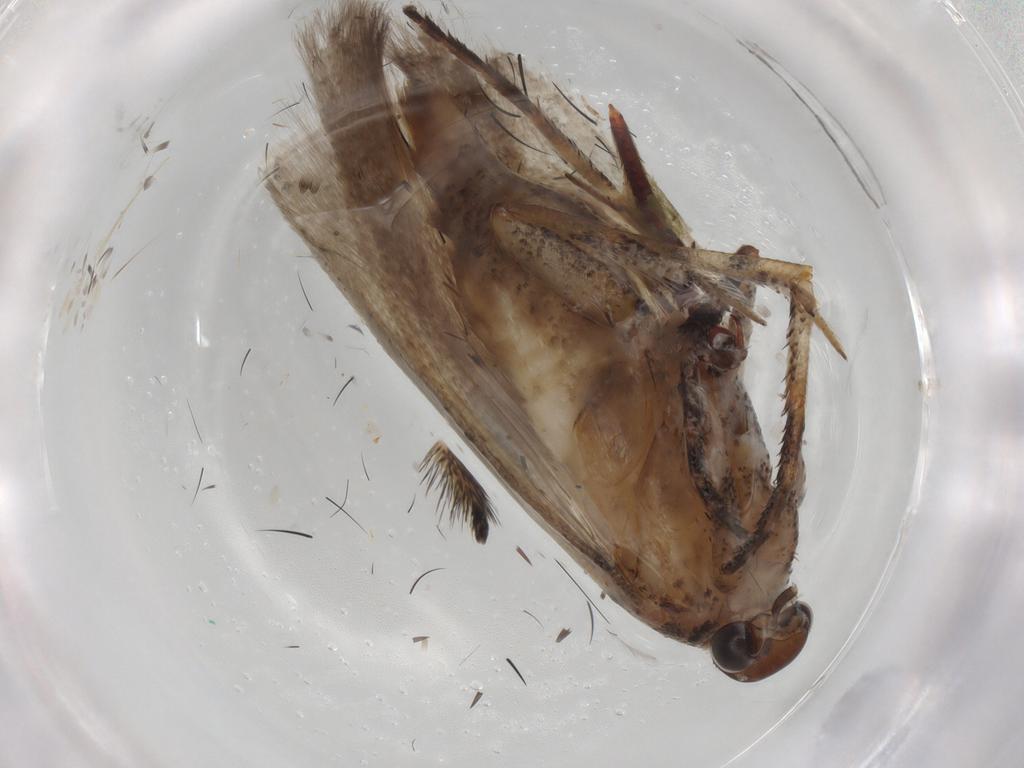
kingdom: Animalia
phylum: Arthropoda
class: Insecta
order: Lepidoptera
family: Gelechiidae
